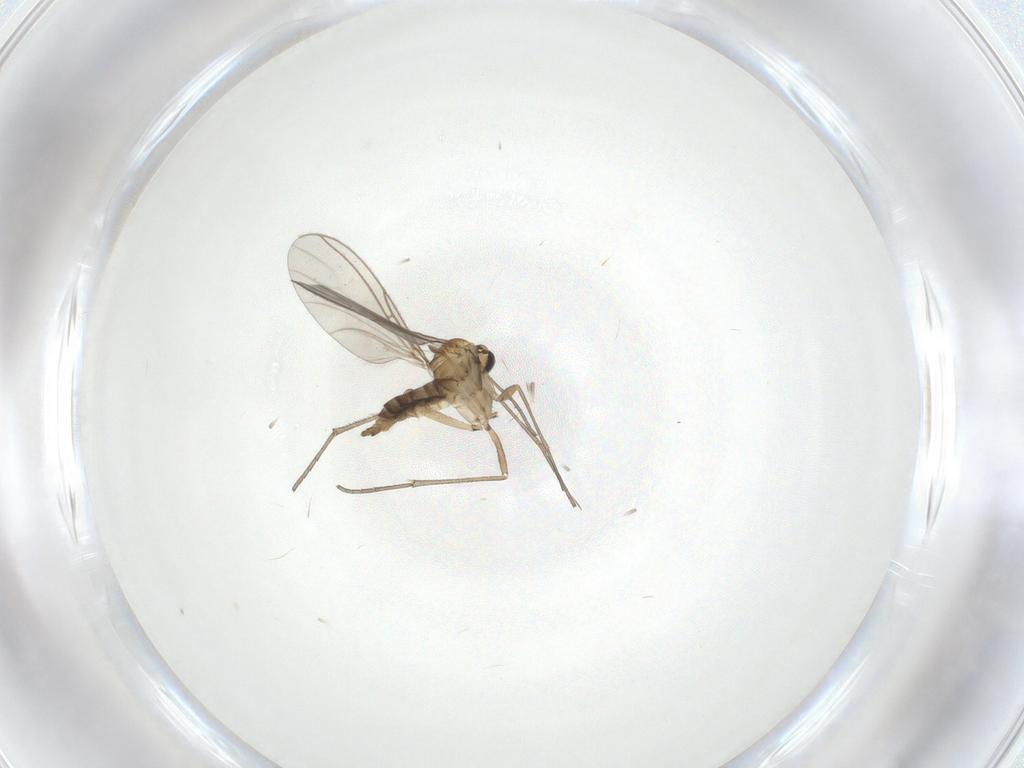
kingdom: Animalia
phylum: Arthropoda
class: Insecta
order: Diptera
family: Sciaridae
